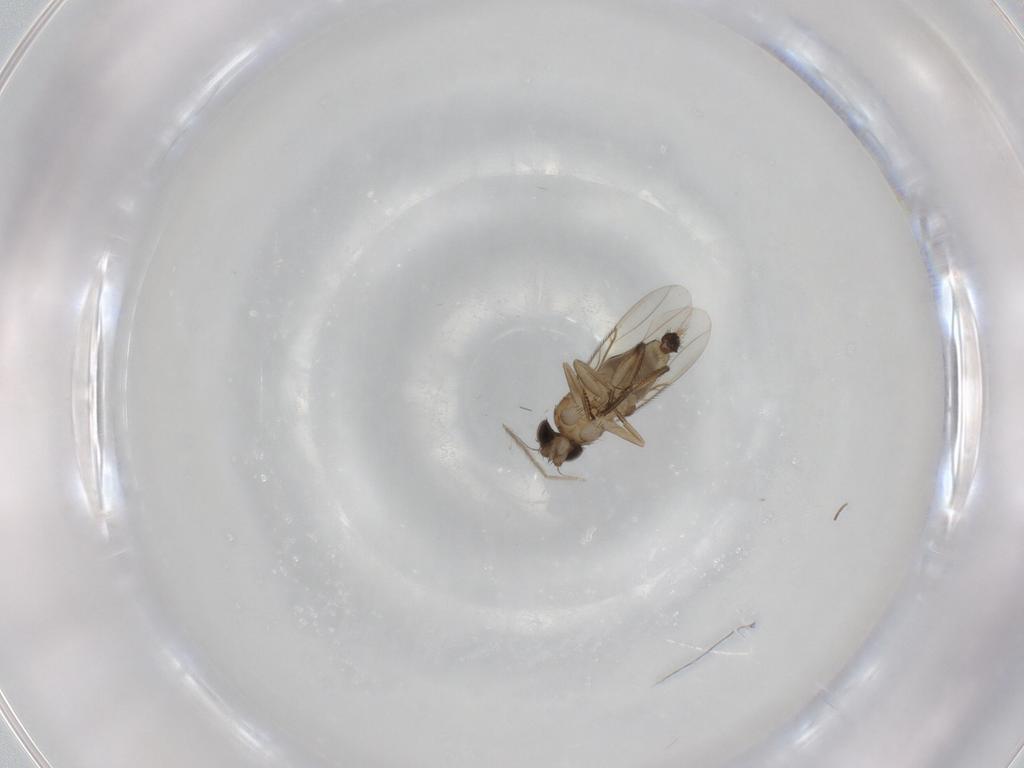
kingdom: Animalia
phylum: Arthropoda
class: Insecta
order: Diptera
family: Phoridae
